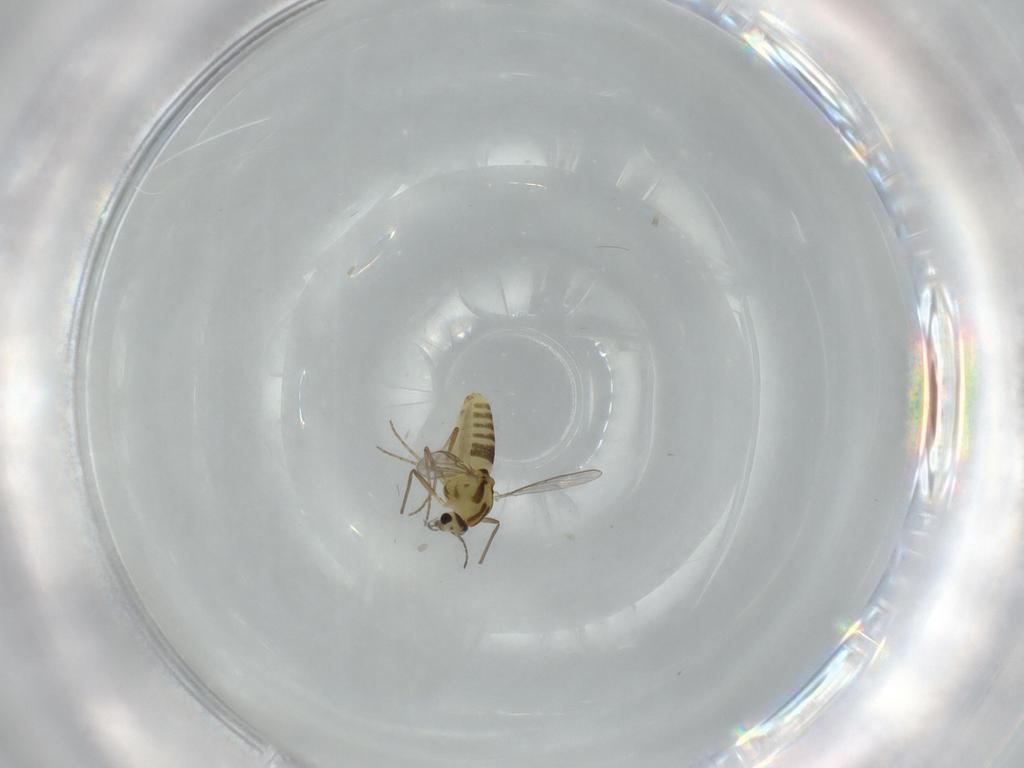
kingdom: Animalia
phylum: Arthropoda
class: Insecta
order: Diptera
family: Chironomidae
